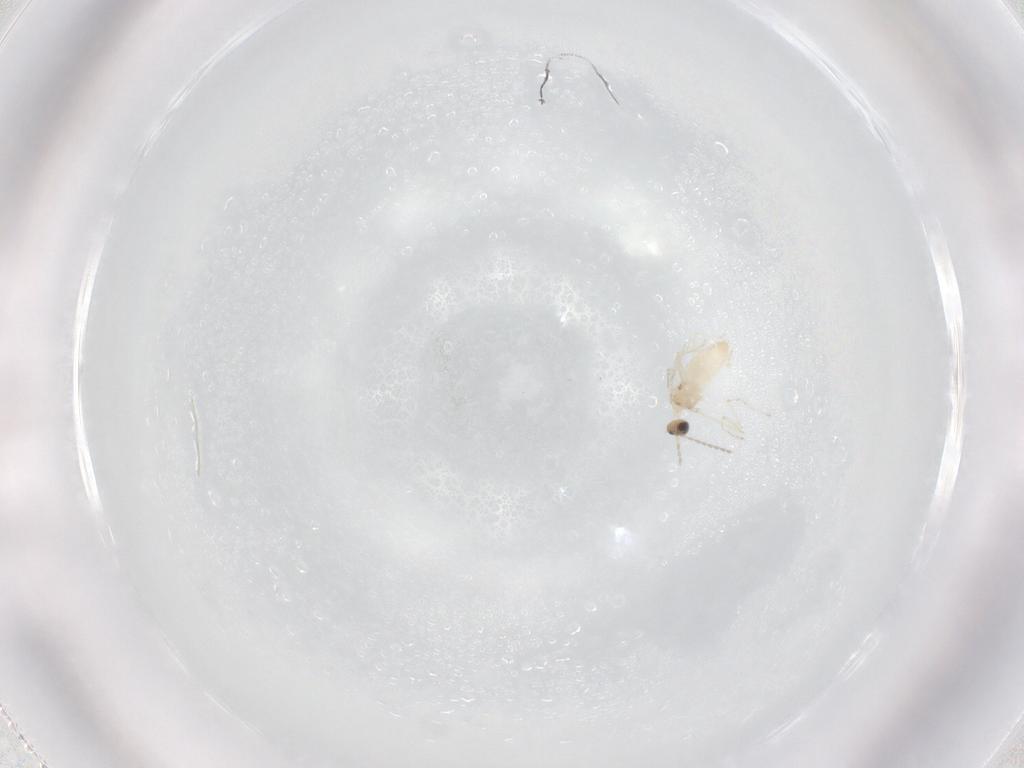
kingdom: Animalia
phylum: Arthropoda
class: Insecta
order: Diptera
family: Cecidomyiidae
